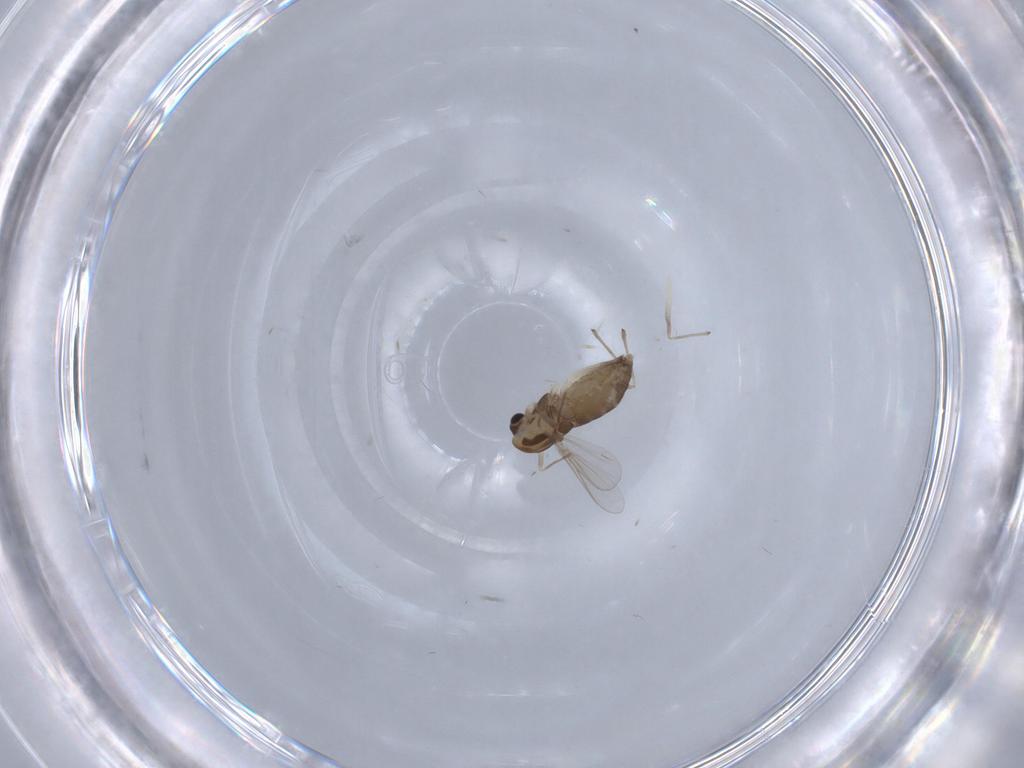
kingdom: Animalia
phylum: Arthropoda
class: Insecta
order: Diptera
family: Chironomidae
